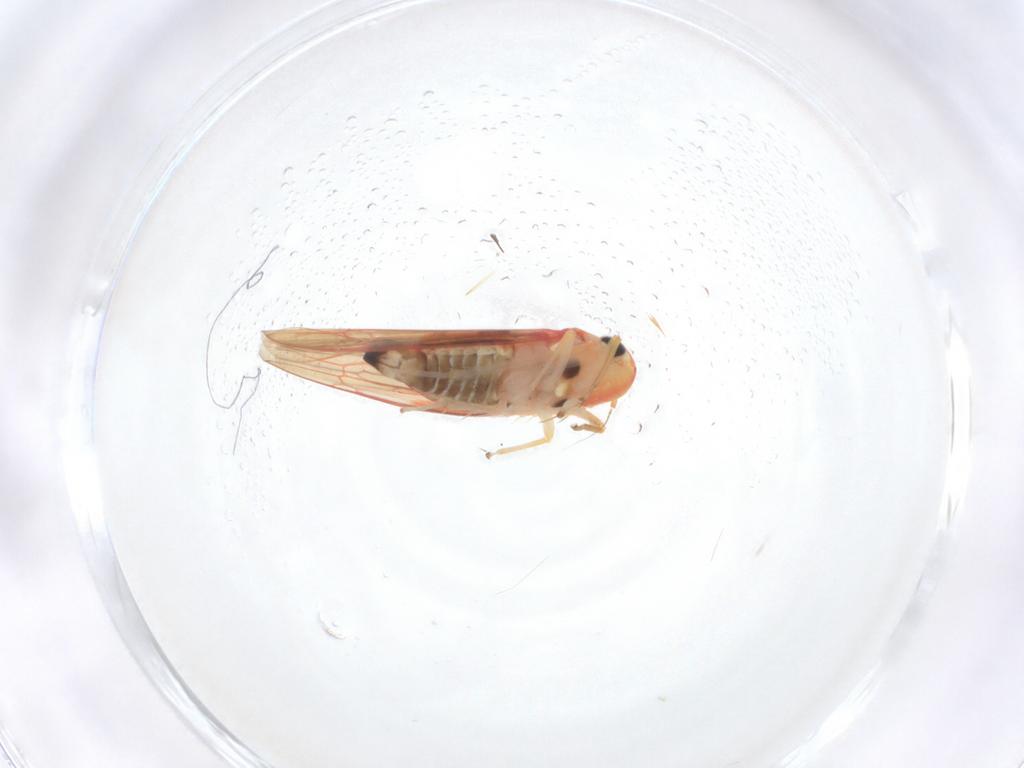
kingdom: Animalia
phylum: Arthropoda
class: Insecta
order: Hemiptera
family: Cicadellidae
